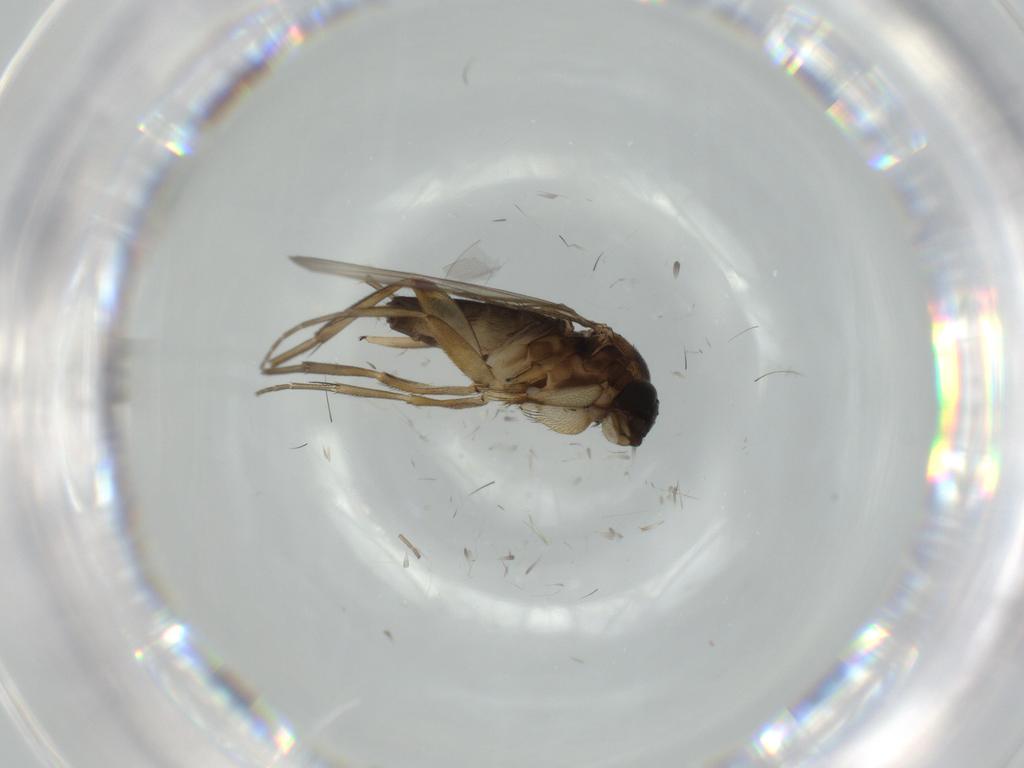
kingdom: Animalia
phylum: Arthropoda
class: Insecta
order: Diptera
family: Phoridae
